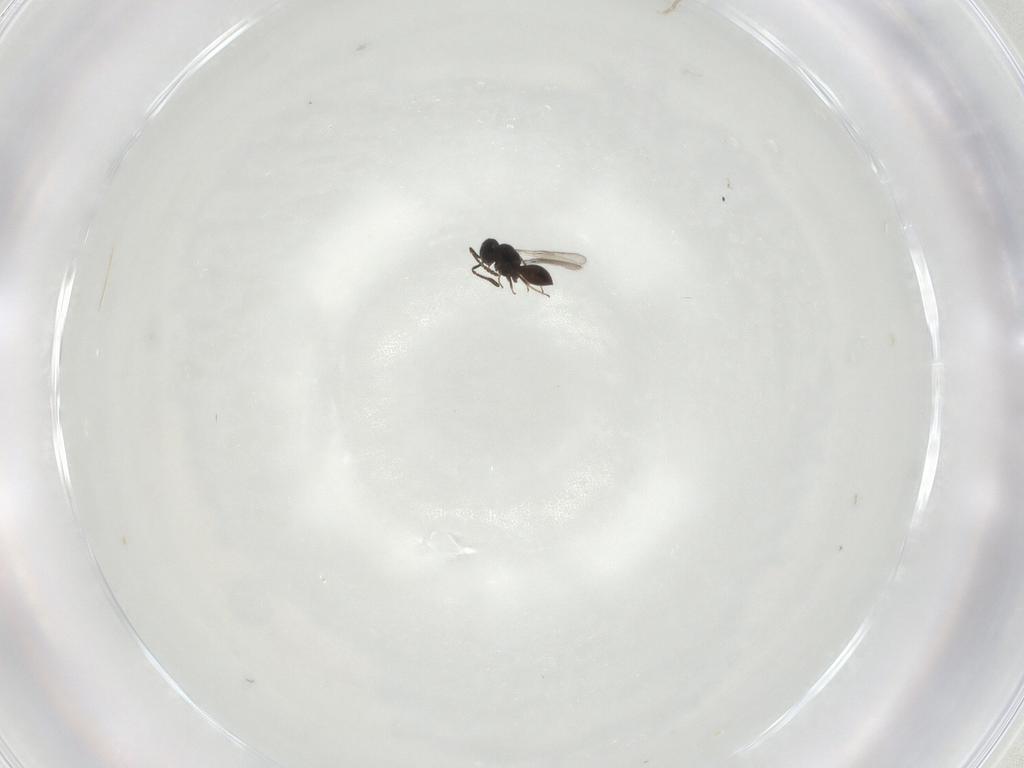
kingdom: Animalia
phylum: Arthropoda
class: Insecta
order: Hymenoptera
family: Scelionidae
